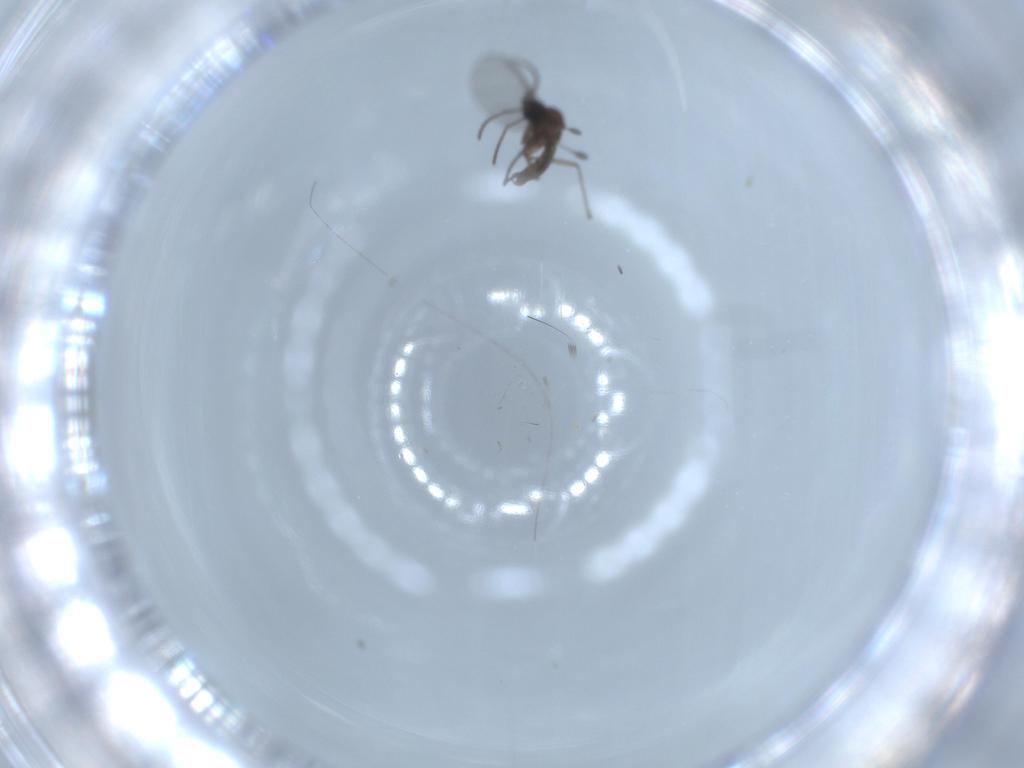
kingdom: Animalia
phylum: Arthropoda
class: Insecta
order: Diptera
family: Sciaridae
